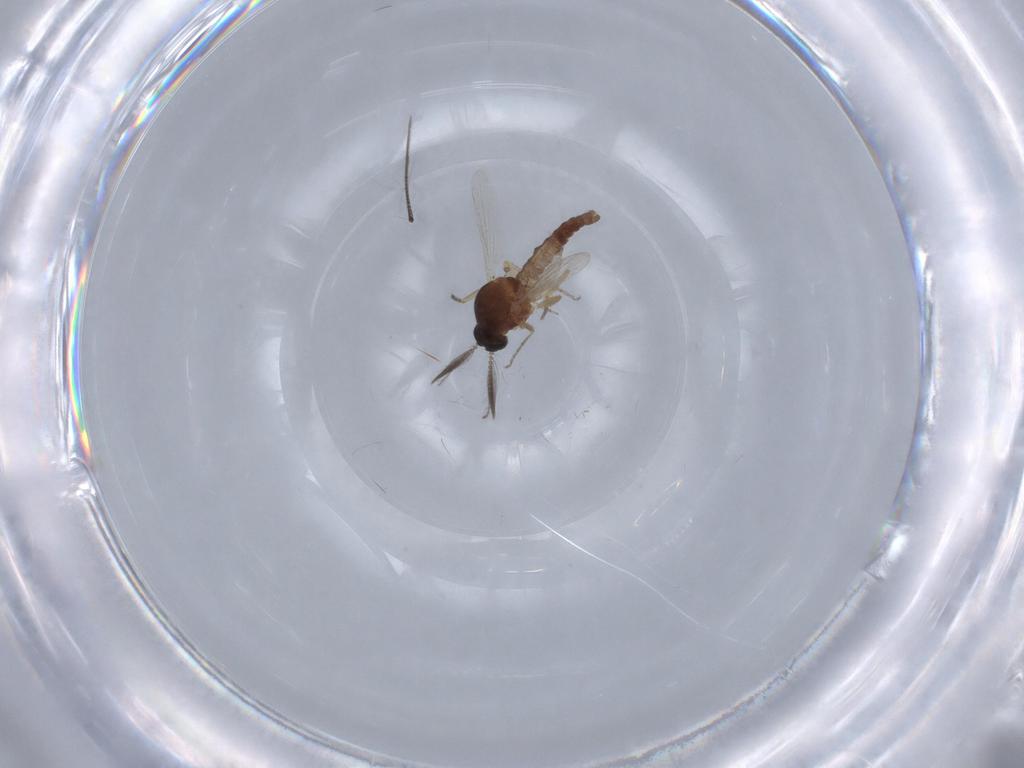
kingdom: Animalia
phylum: Arthropoda
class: Insecta
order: Diptera
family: Ceratopogonidae
